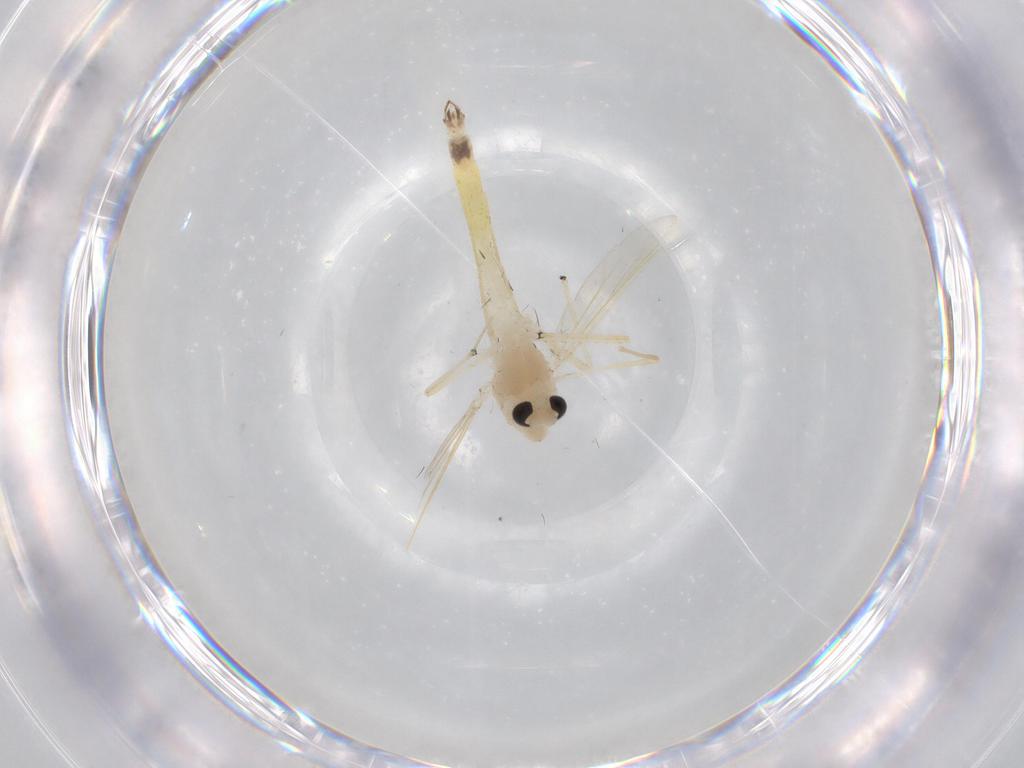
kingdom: Animalia
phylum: Arthropoda
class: Insecta
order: Diptera
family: Chironomidae
